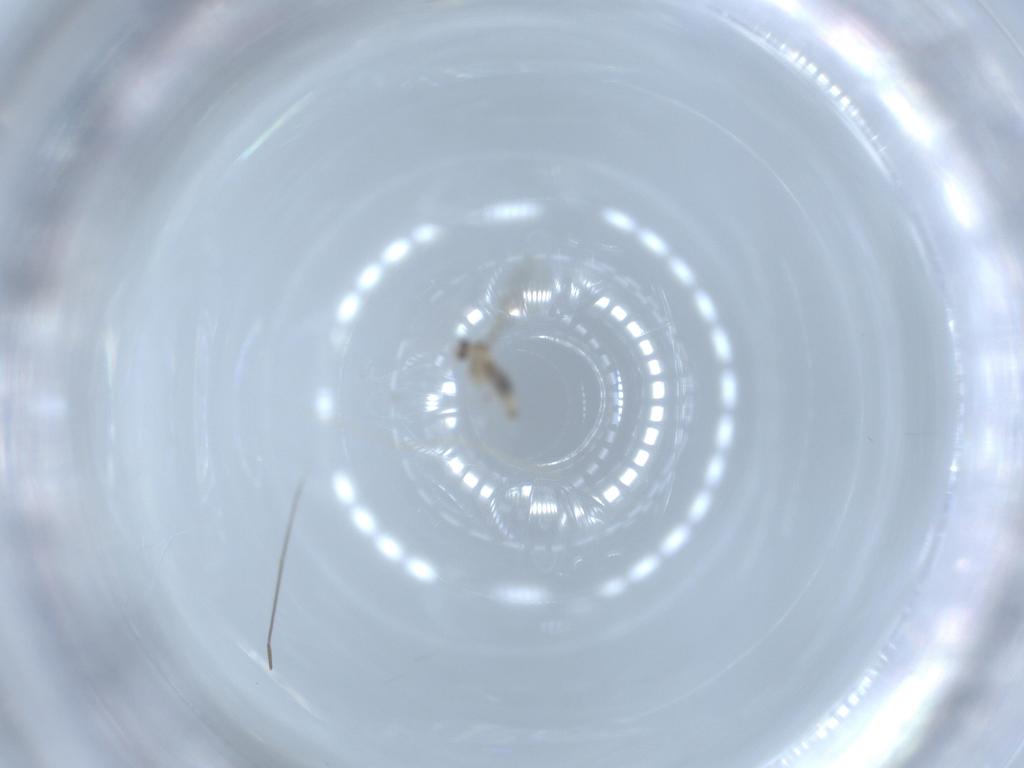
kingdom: Animalia
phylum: Arthropoda
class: Insecta
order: Diptera
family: Cecidomyiidae
